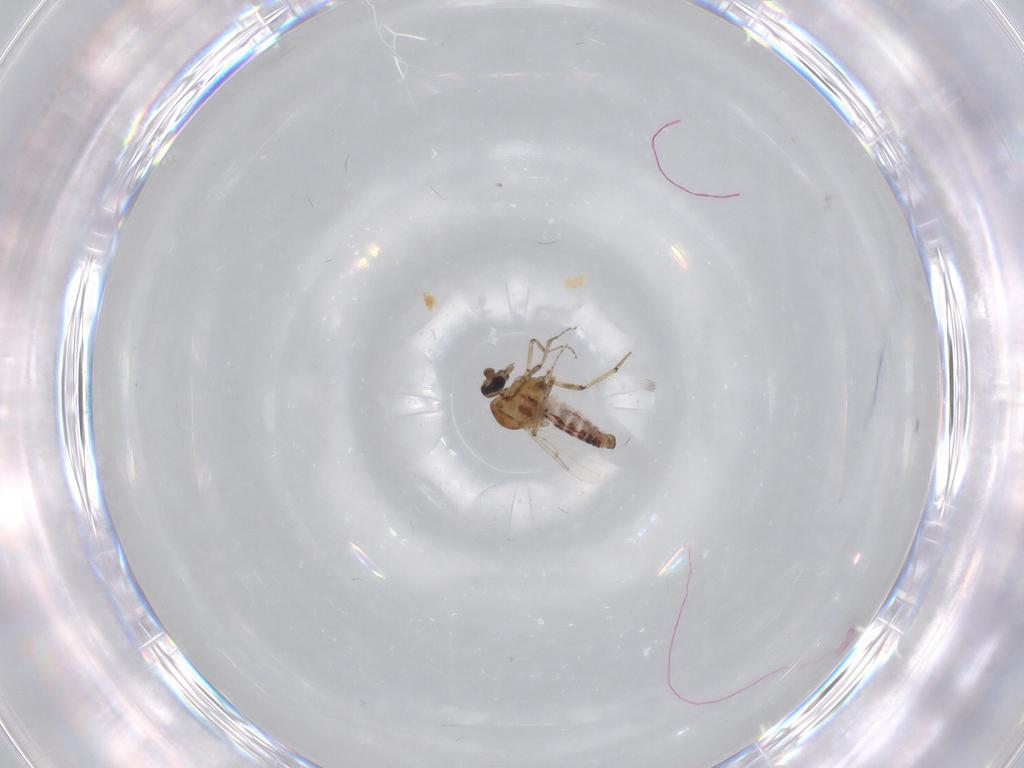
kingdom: Animalia
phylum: Arthropoda
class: Insecta
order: Diptera
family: Ceratopogonidae
